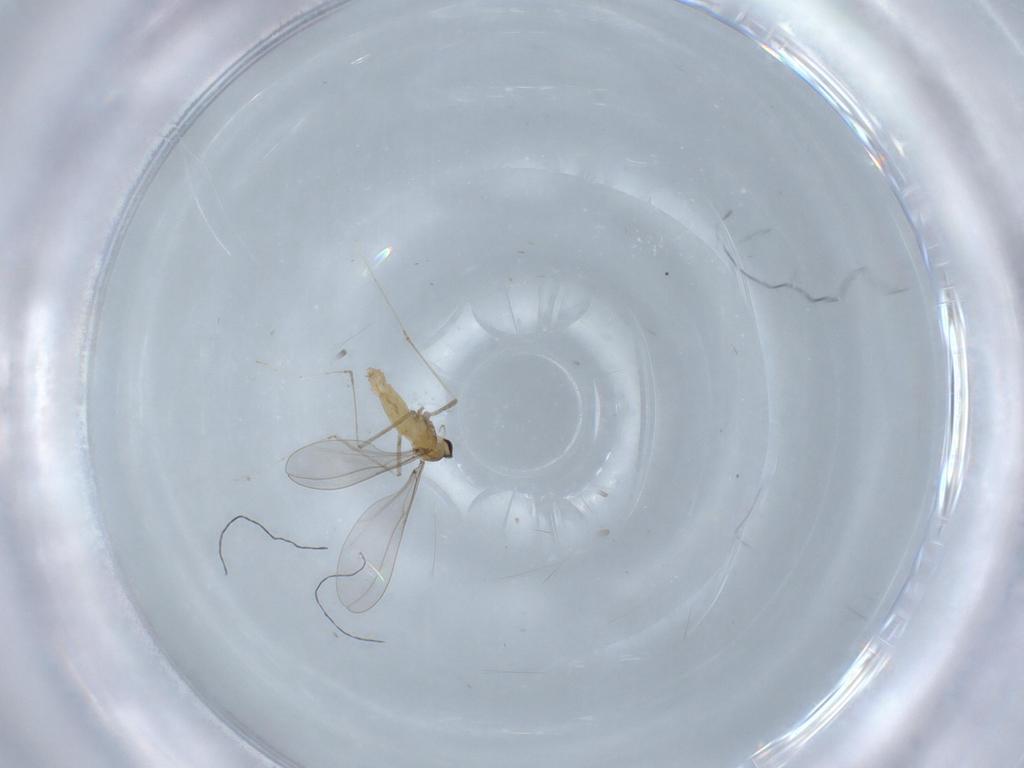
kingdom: Animalia
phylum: Arthropoda
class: Insecta
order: Diptera
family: Cecidomyiidae
